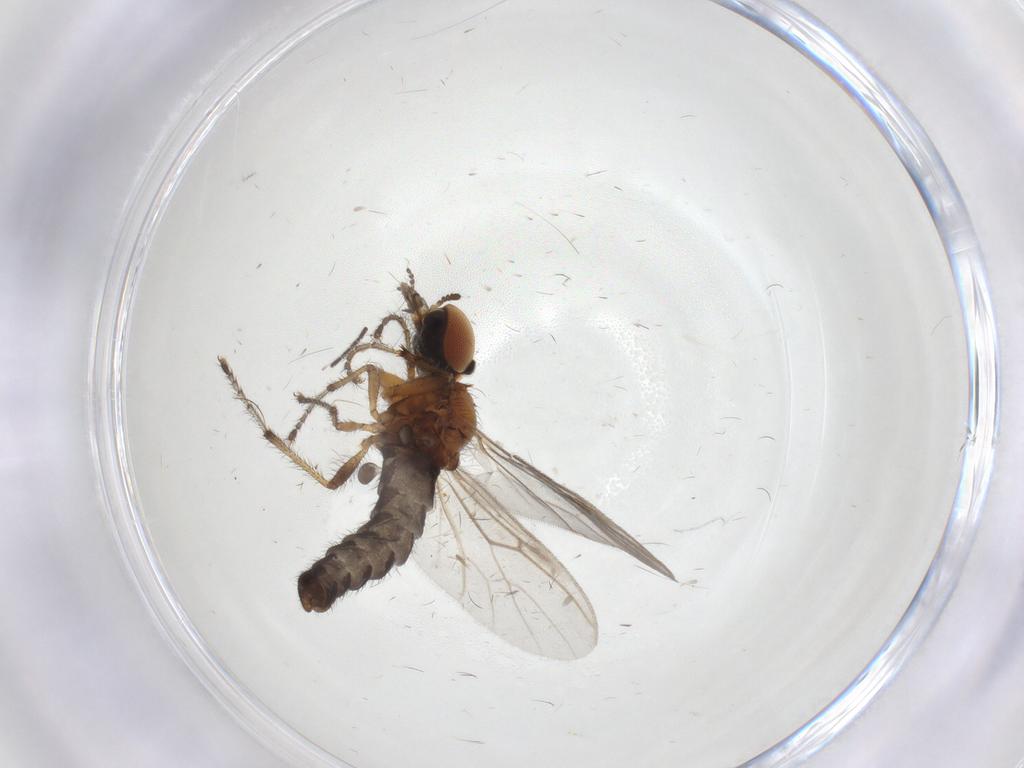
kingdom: Animalia
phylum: Arthropoda
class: Insecta
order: Diptera
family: Bibionidae
